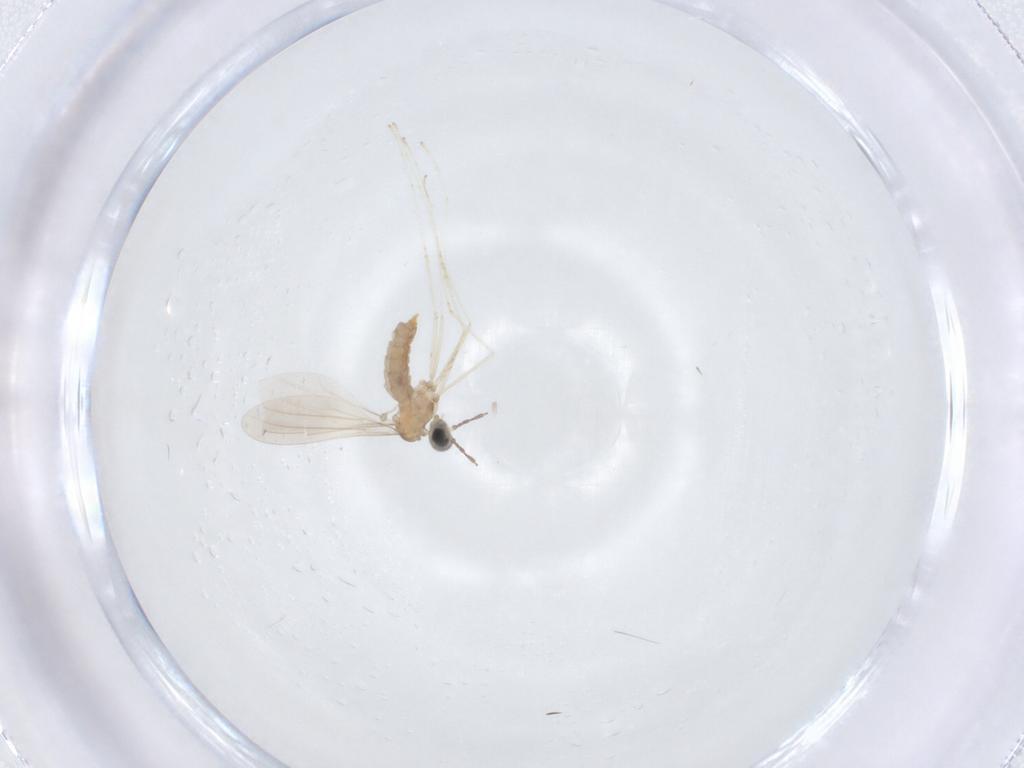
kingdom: Animalia
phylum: Arthropoda
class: Insecta
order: Diptera
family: Cecidomyiidae
